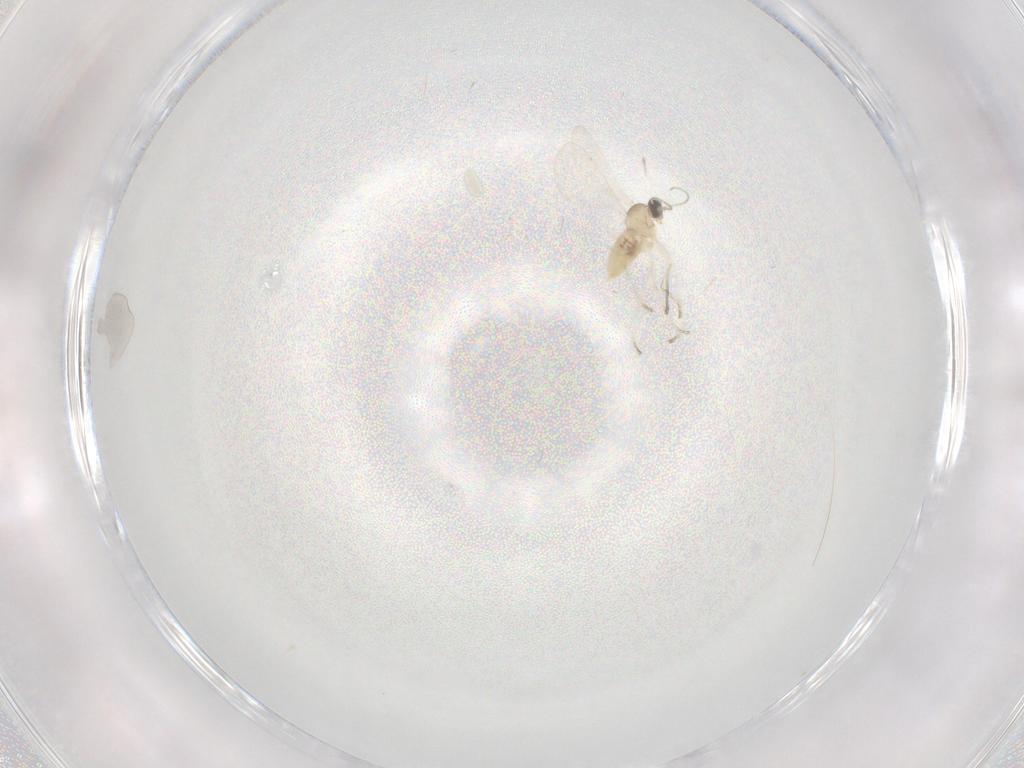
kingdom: Animalia
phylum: Arthropoda
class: Insecta
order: Diptera
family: Cecidomyiidae
